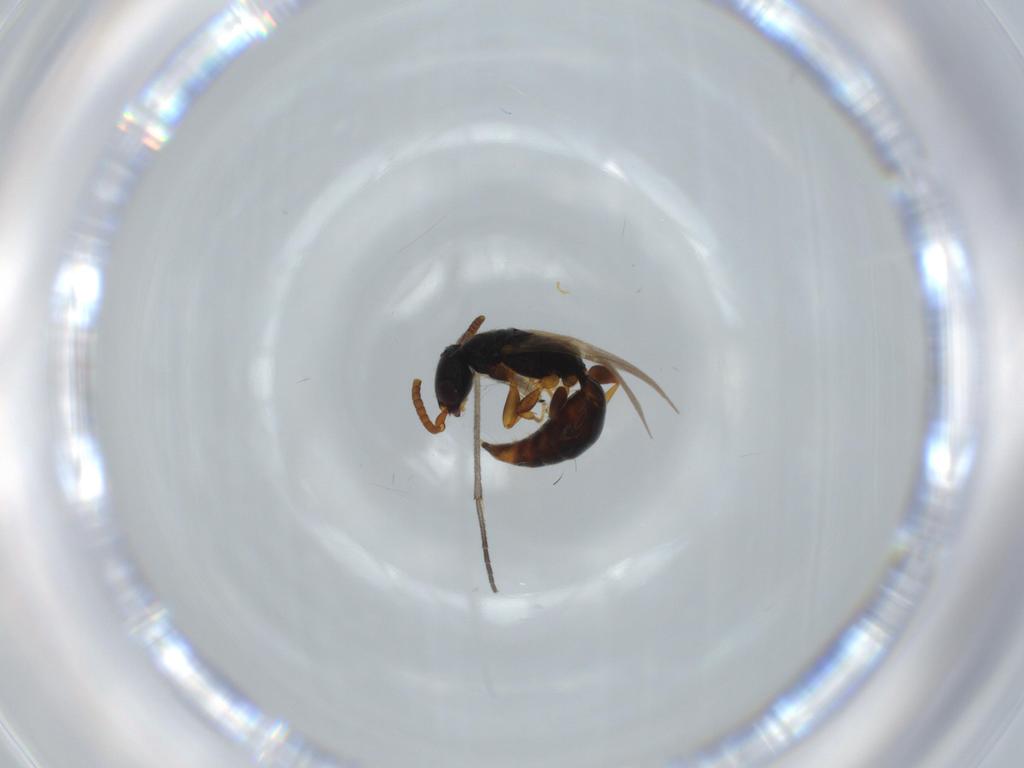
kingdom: Animalia
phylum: Arthropoda
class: Insecta
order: Hymenoptera
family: Bethylidae
